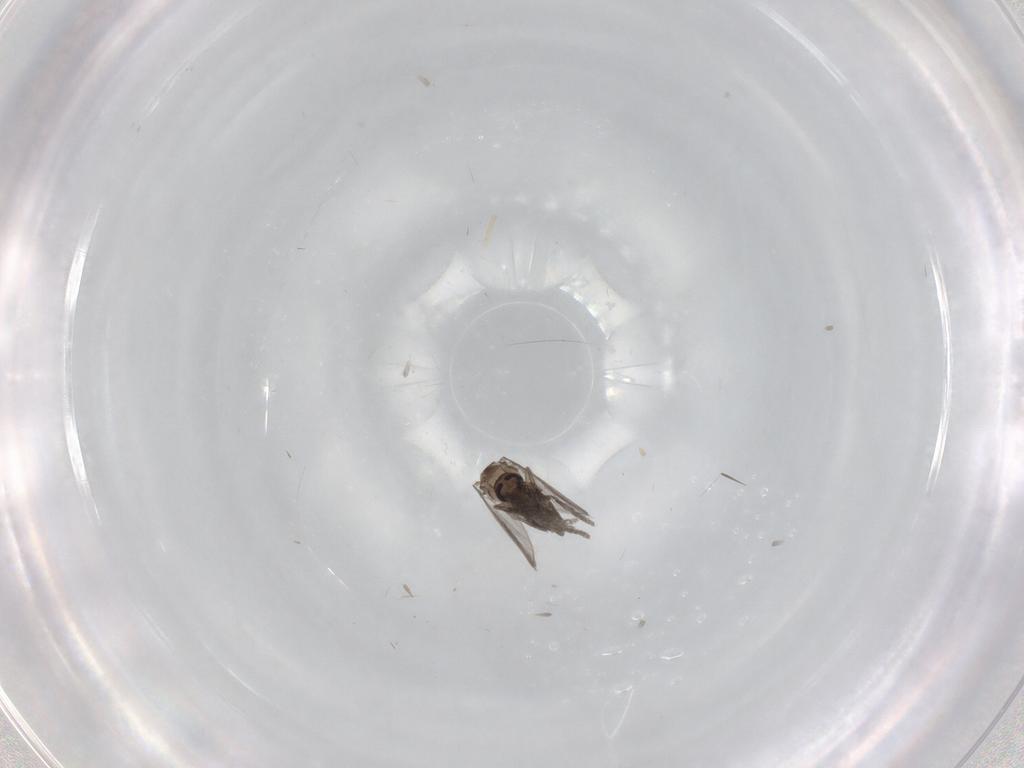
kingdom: Animalia
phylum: Arthropoda
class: Insecta
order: Diptera
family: Psychodidae
